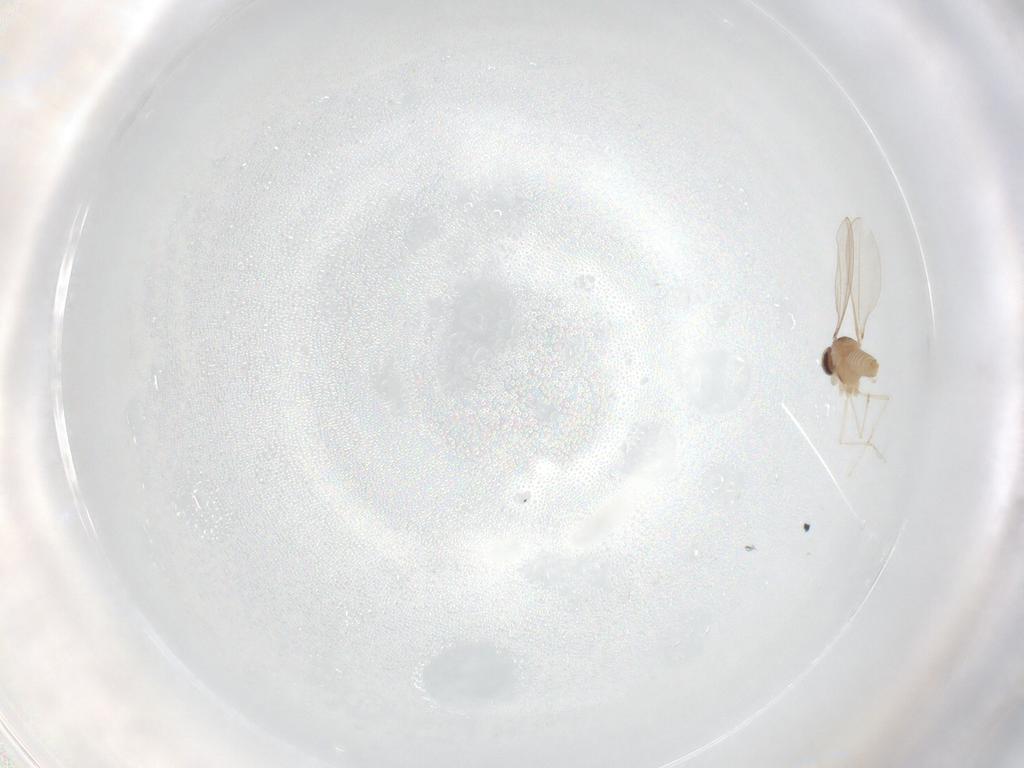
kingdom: Animalia
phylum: Arthropoda
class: Insecta
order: Diptera
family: Cecidomyiidae
